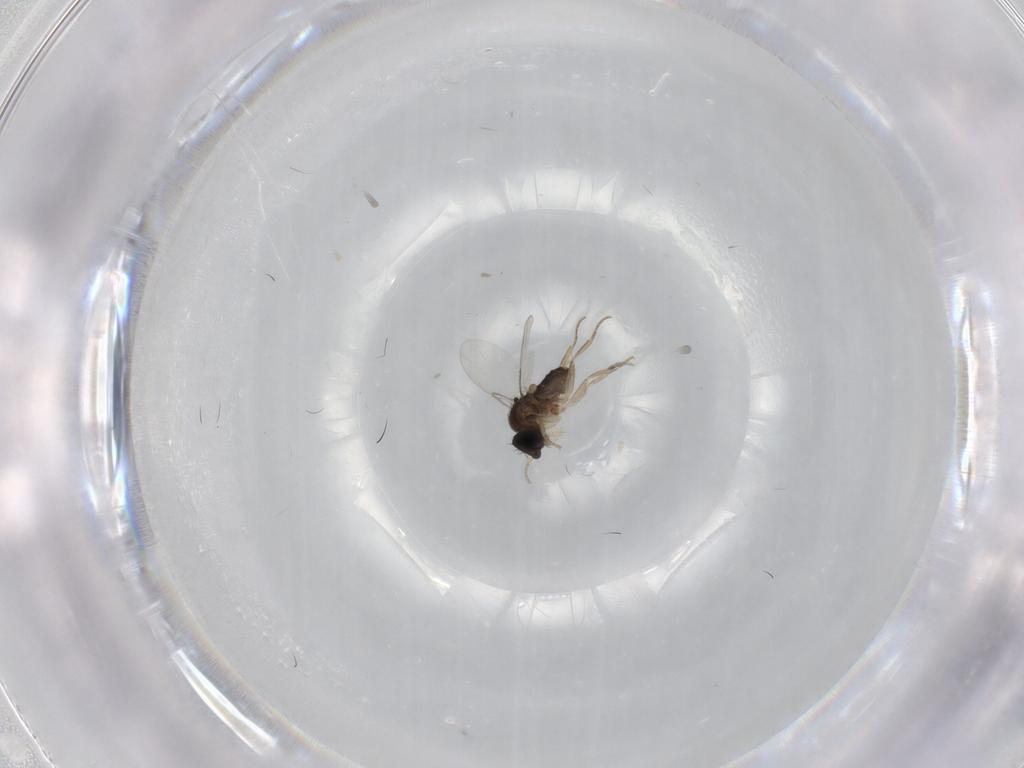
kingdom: Animalia
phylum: Arthropoda
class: Insecta
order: Diptera
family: Phoridae
